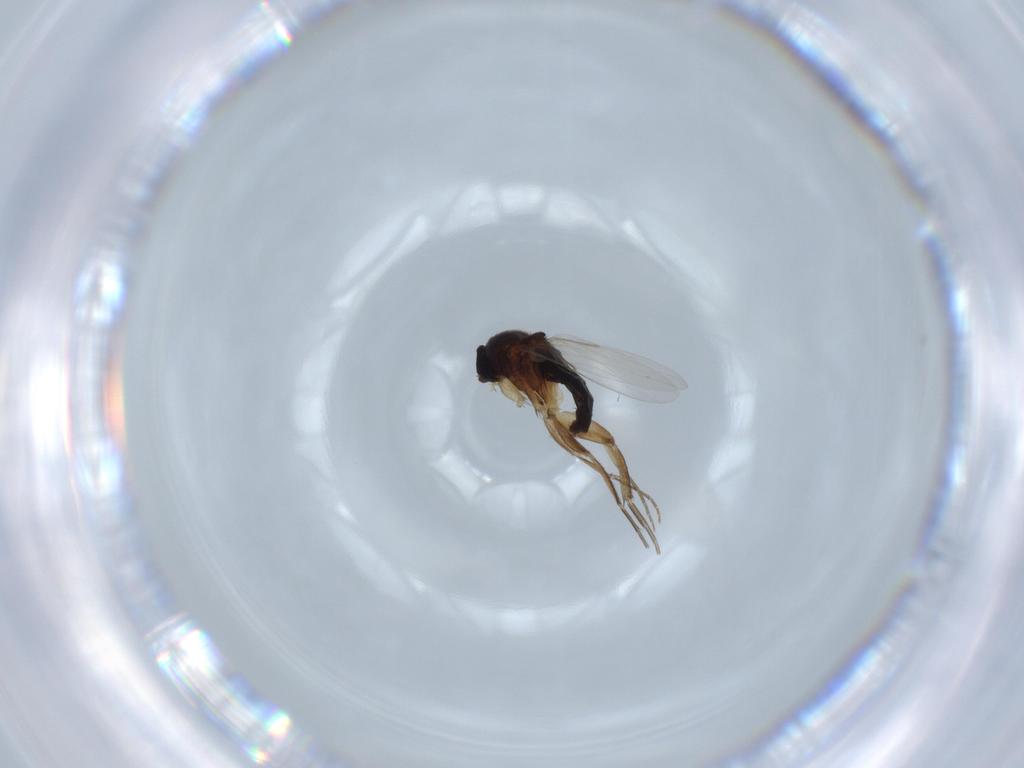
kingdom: Animalia
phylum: Arthropoda
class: Insecta
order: Diptera
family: Phoridae
